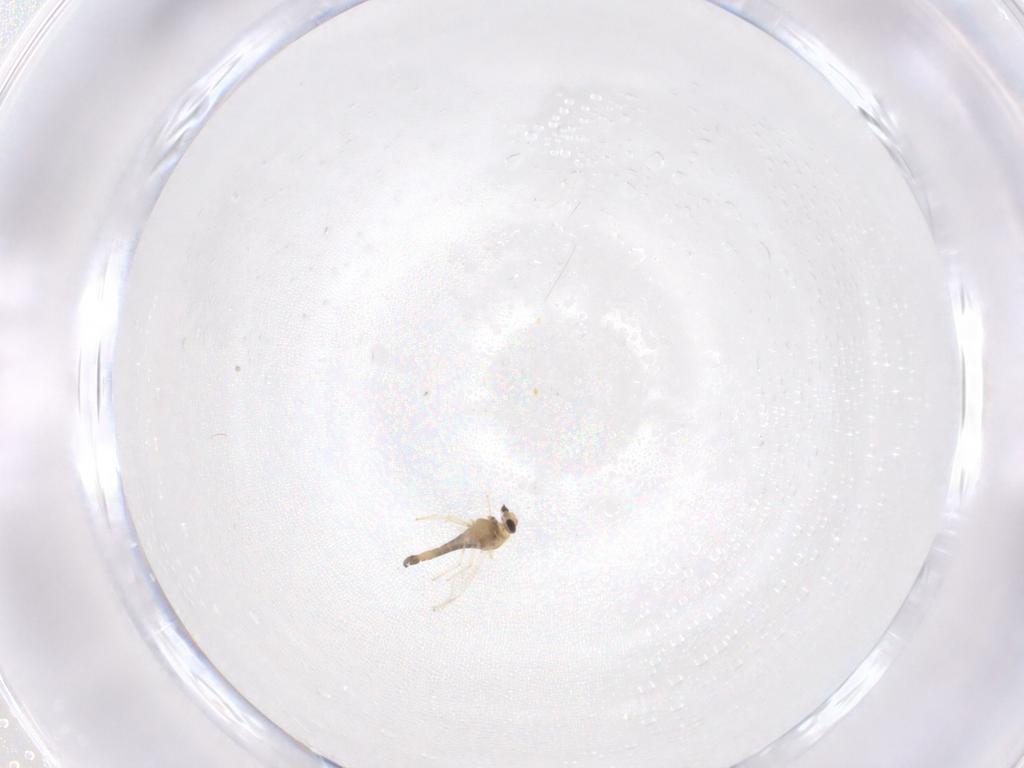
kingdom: Animalia
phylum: Arthropoda
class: Insecta
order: Diptera
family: Chironomidae
